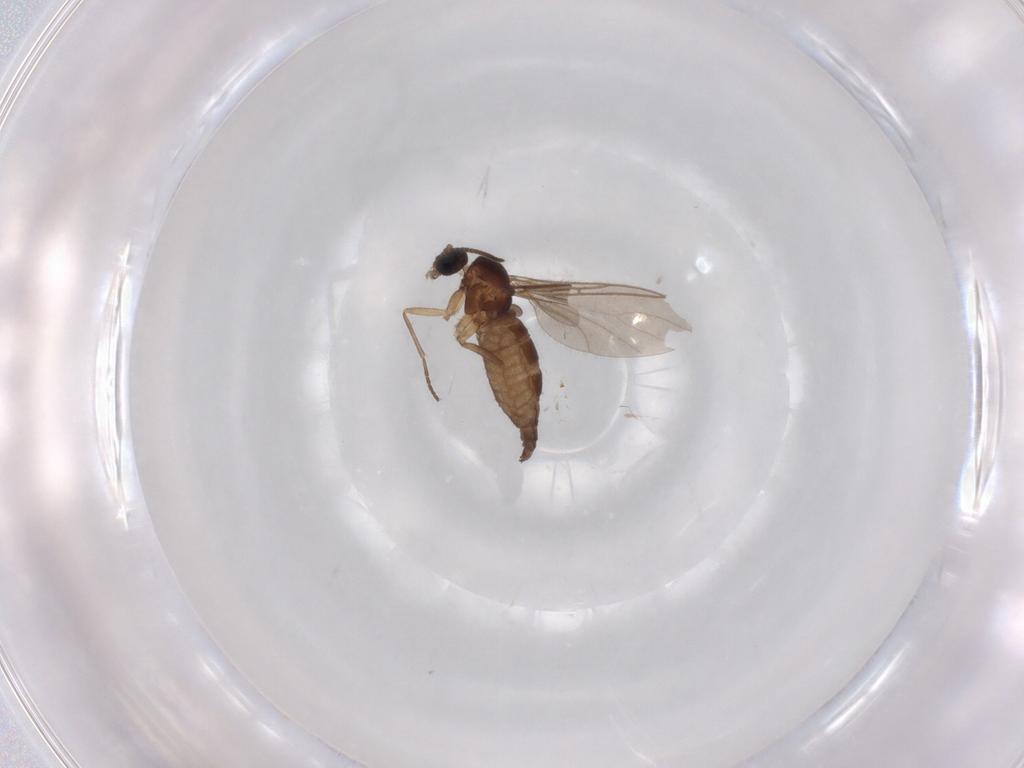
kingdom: Animalia
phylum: Arthropoda
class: Insecta
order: Diptera
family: Sciaridae
